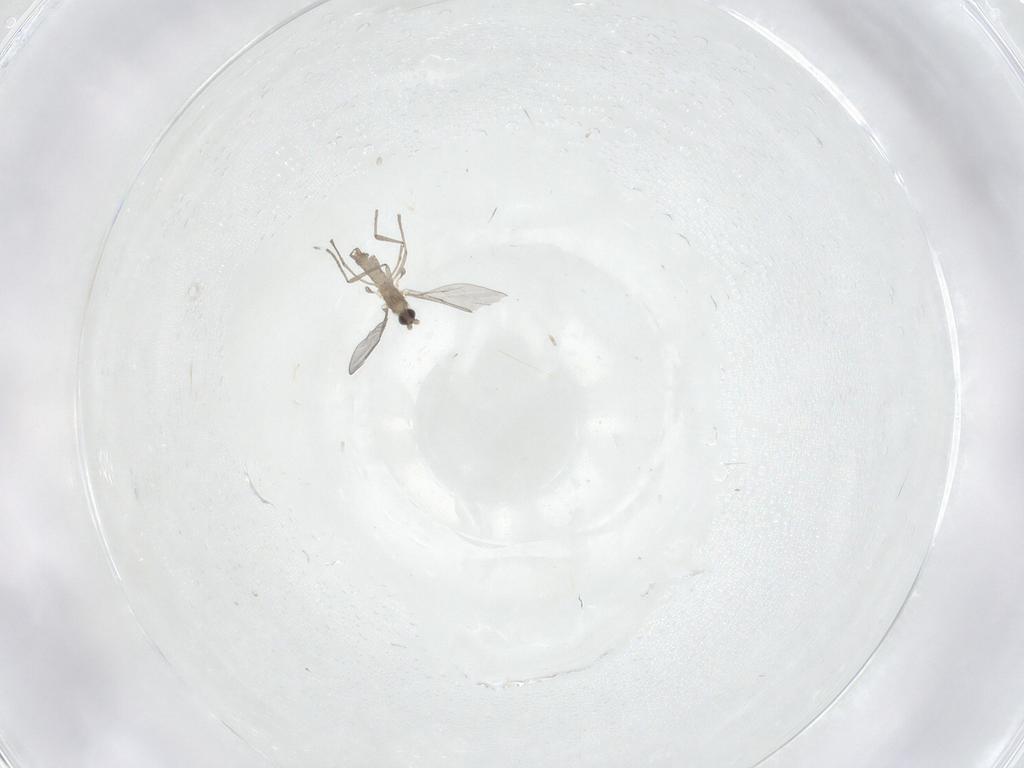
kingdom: Animalia
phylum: Arthropoda
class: Insecta
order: Diptera
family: Cecidomyiidae
